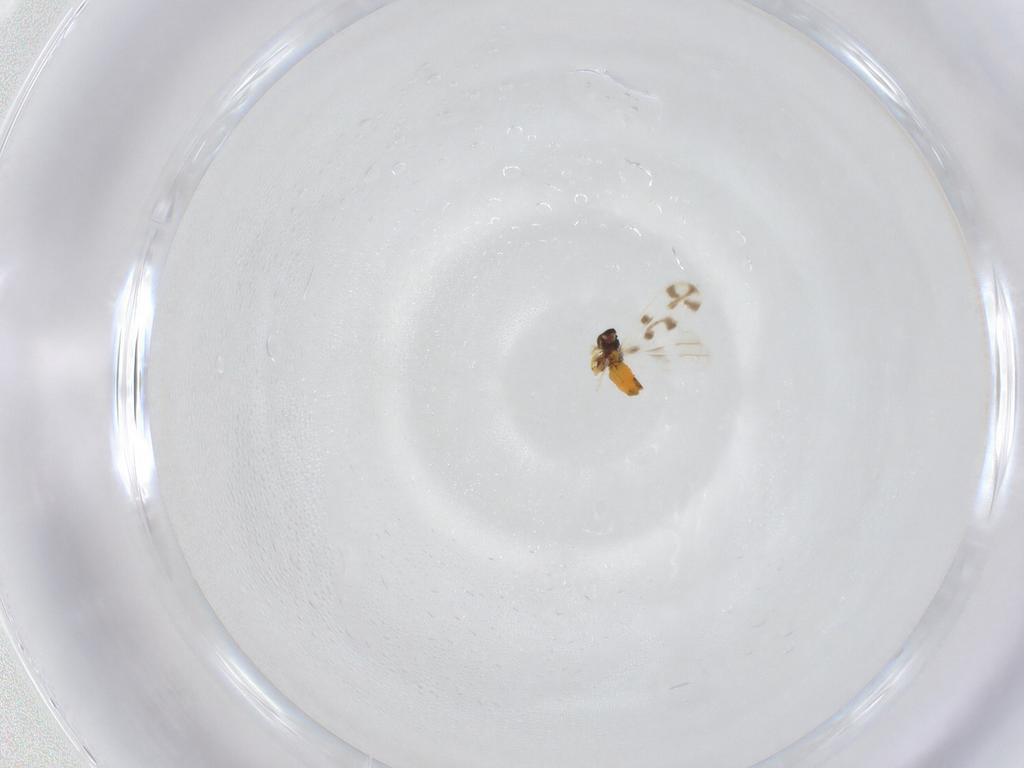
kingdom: Animalia
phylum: Arthropoda
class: Insecta
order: Hemiptera
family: Aleyrodidae
